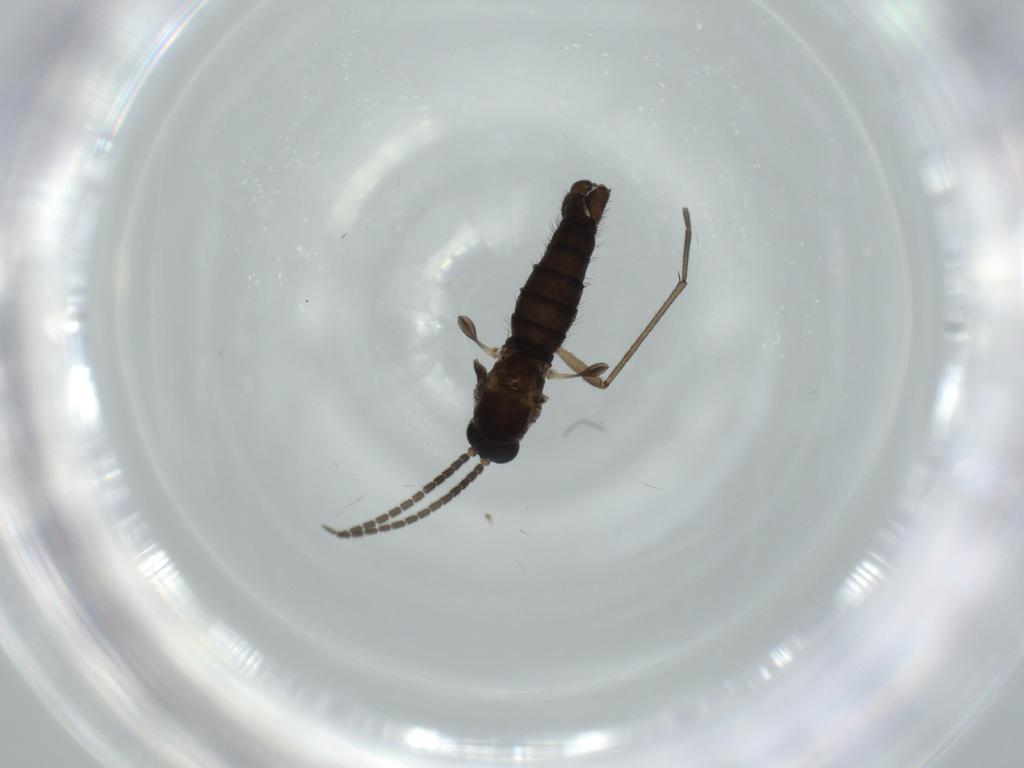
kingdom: Animalia
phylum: Arthropoda
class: Insecta
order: Diptera
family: Sciaridae
